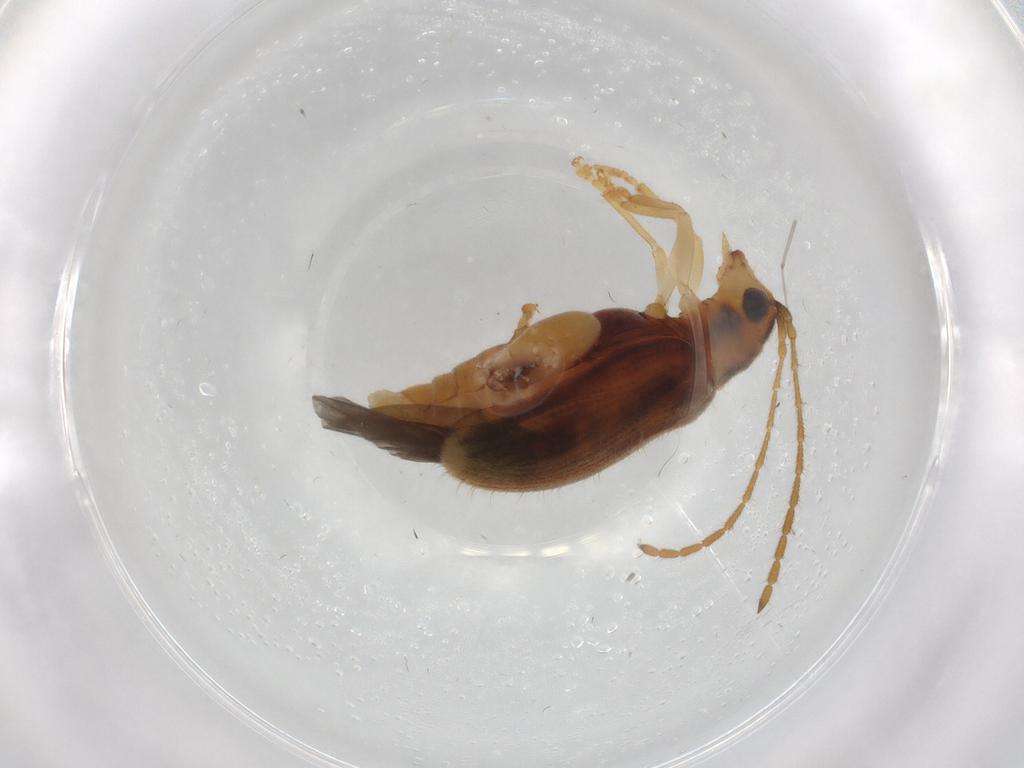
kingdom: Animalia
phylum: Arthropoda
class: Insecta
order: Coleoptera
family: Chrysomelidae
